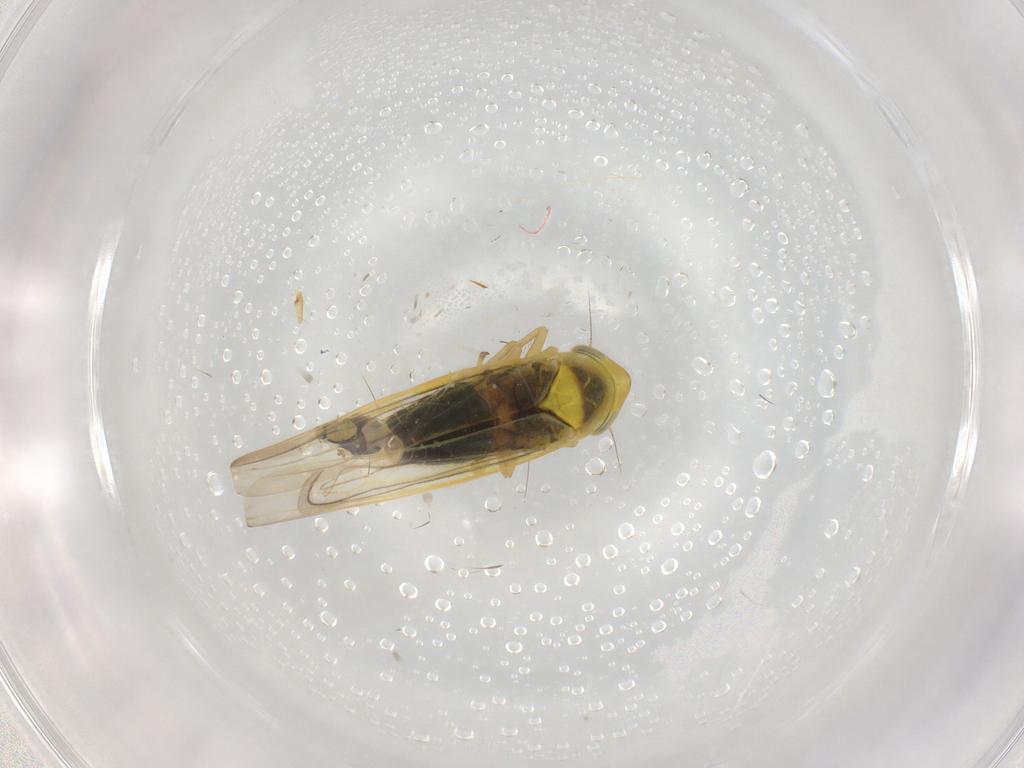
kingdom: Animalia
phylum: Arthropoda
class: Insecta
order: Hemiptera
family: Cicadellidae
